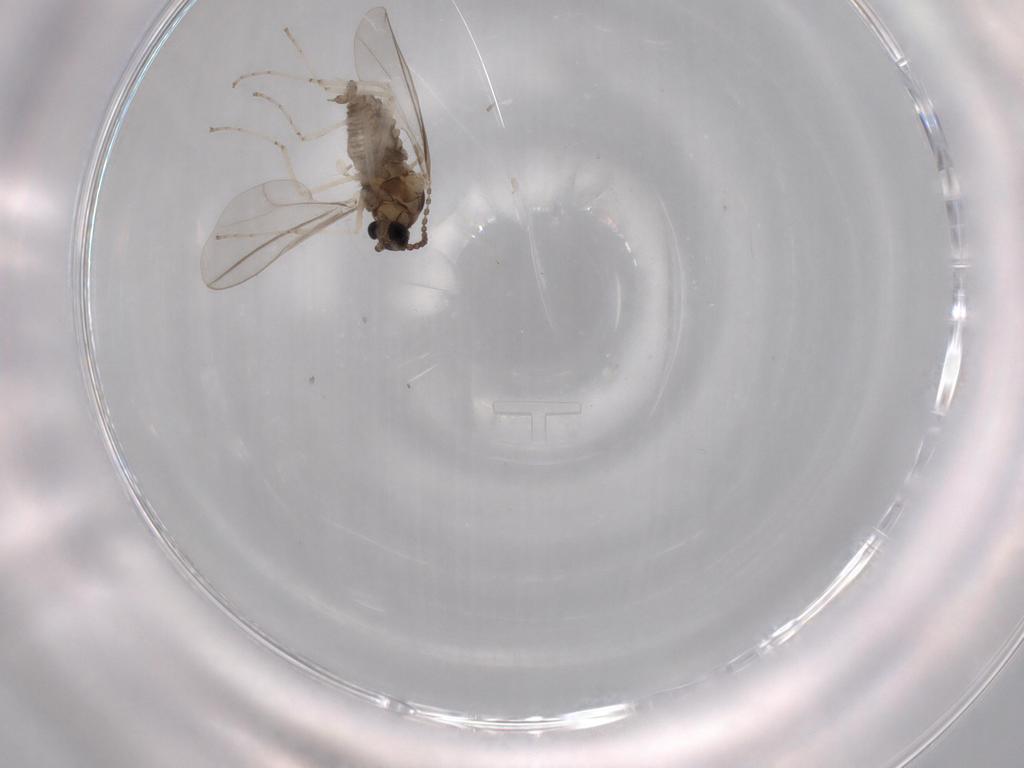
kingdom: Animalia
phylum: Arthropoda
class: Insecta
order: Diptera
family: Cecidomyiidae
